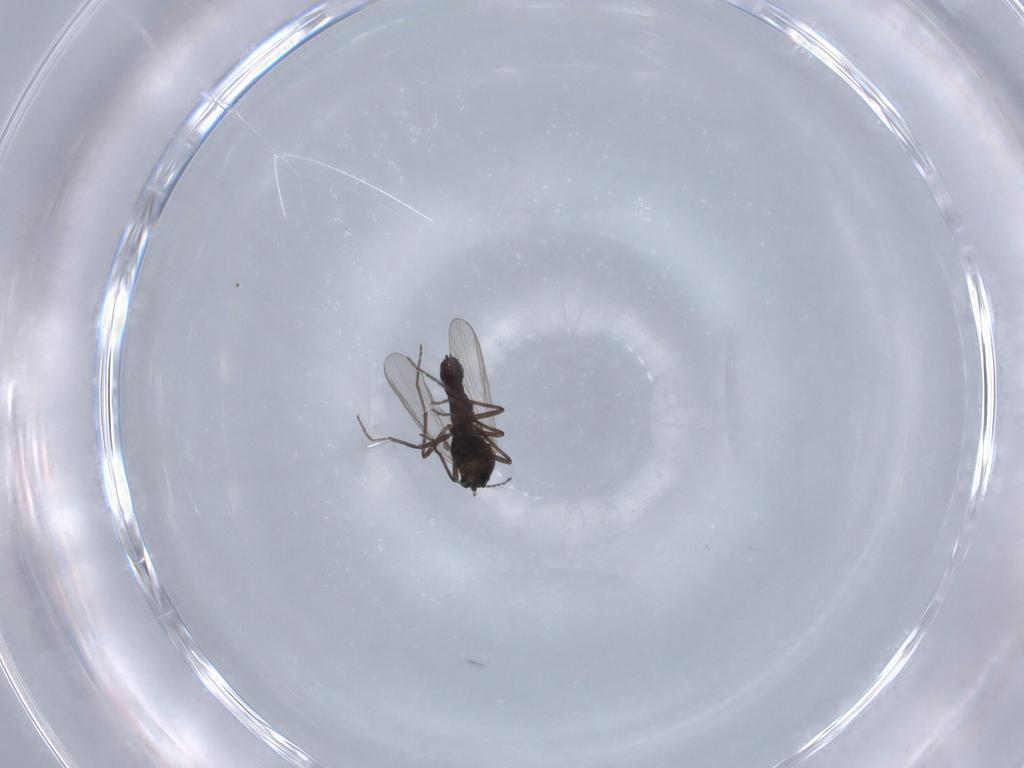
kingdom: Animalia
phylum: Arthropoda
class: Insecta
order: Diptera
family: Chironomidae
